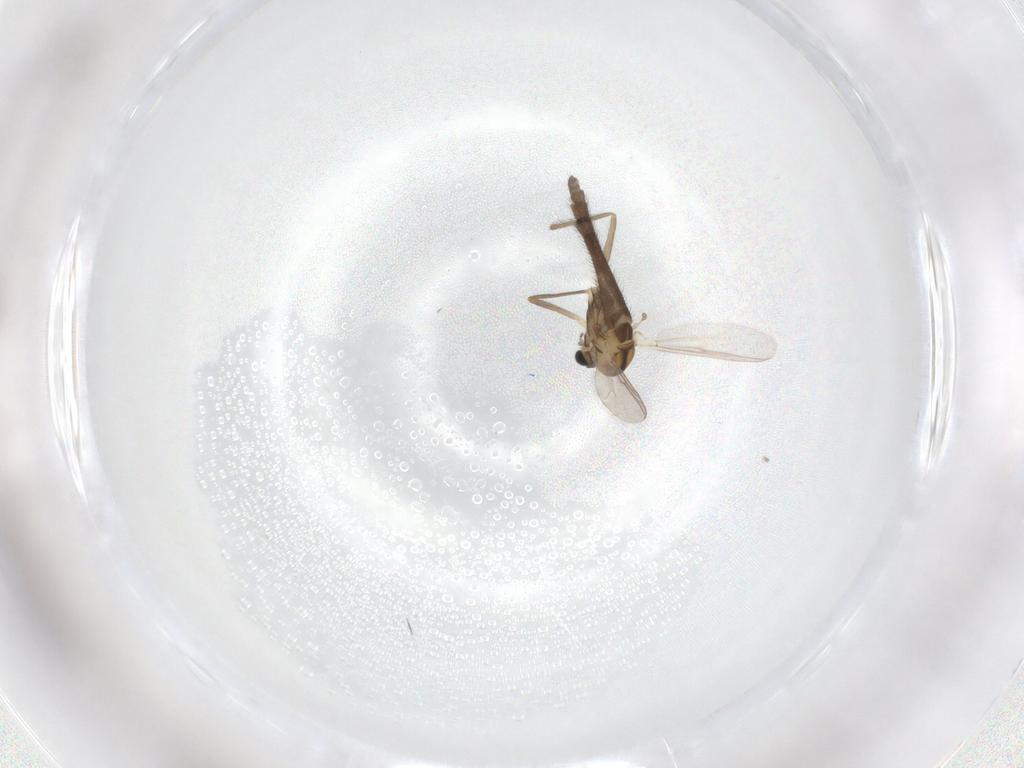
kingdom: Animalia
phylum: Arthropoda
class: Insecta
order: Diptera
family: Chironomidae
